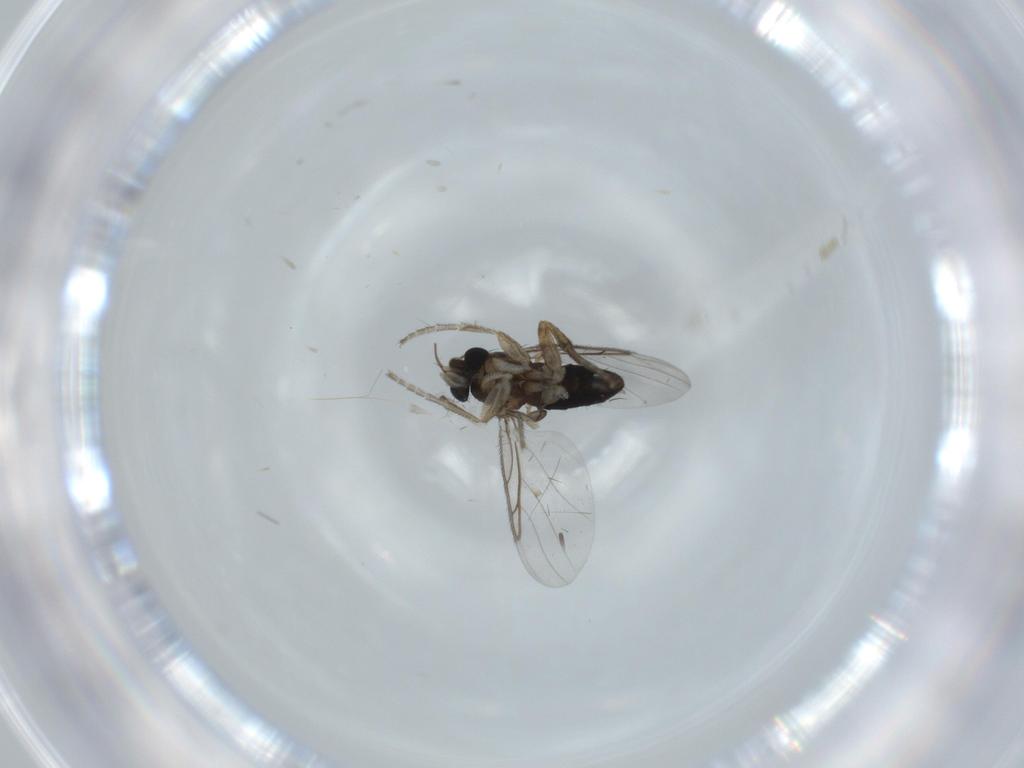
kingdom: Animalia
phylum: Arthropoda
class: Insecta
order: Diptera
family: Phoridae
